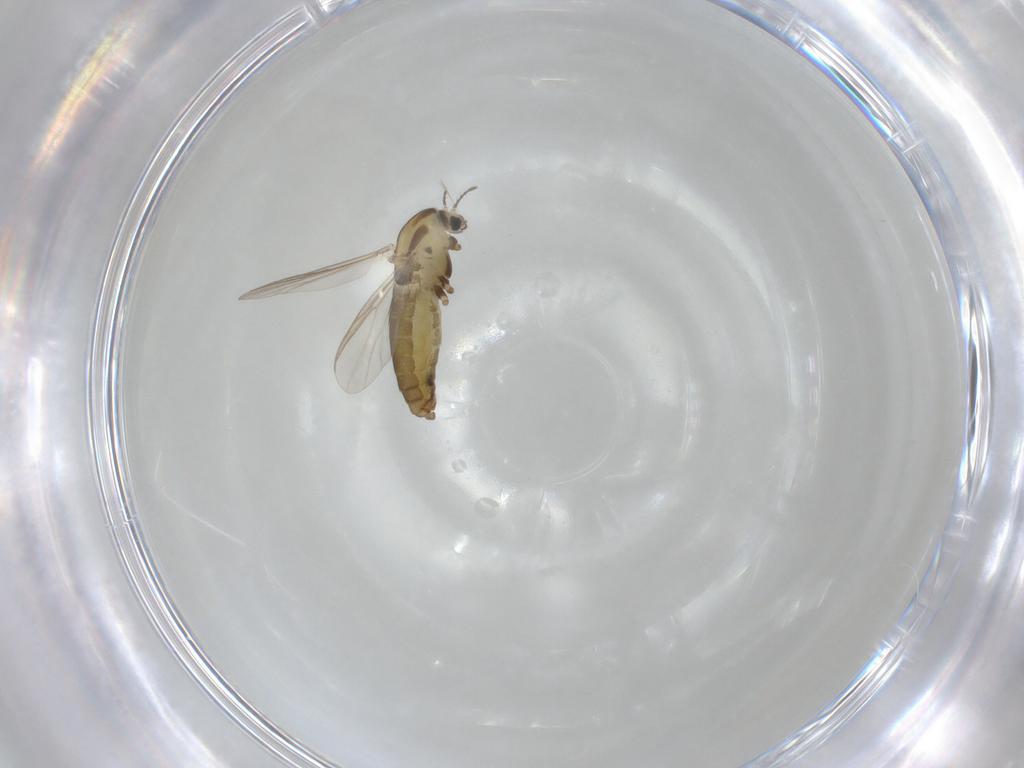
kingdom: Animalia
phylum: Arthropoda
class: Insecta
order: Diptera
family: Chironomidae
